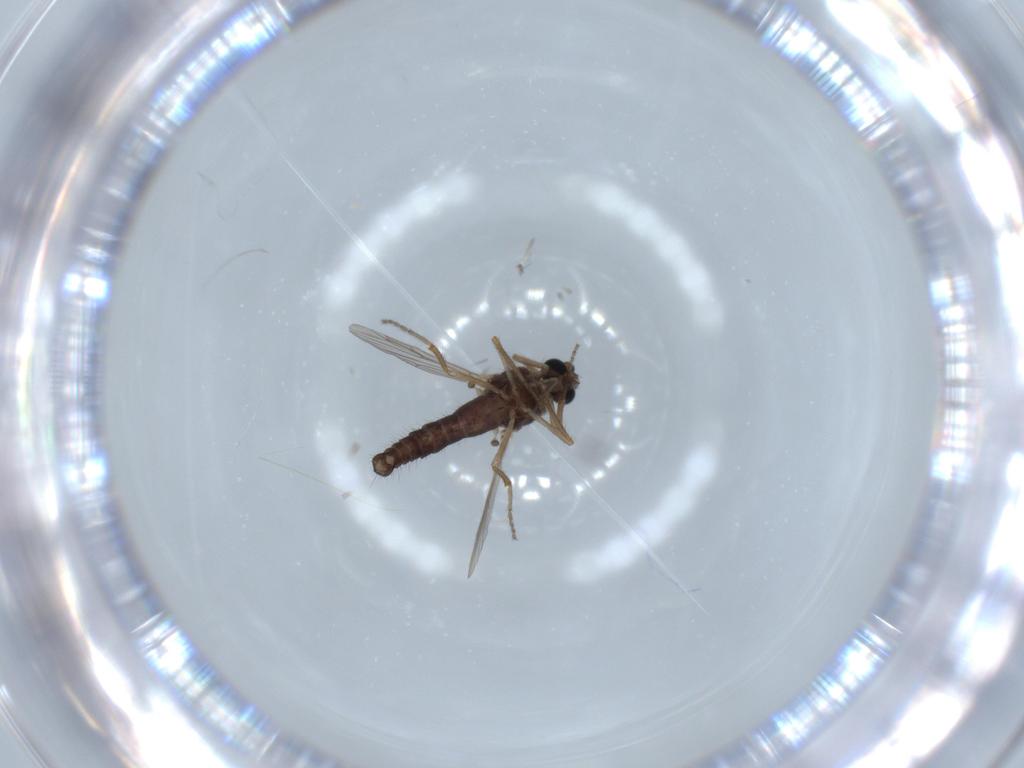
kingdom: Animalia
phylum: Arthropoda
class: Insecta
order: Diptera
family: Ceratopogonidae
